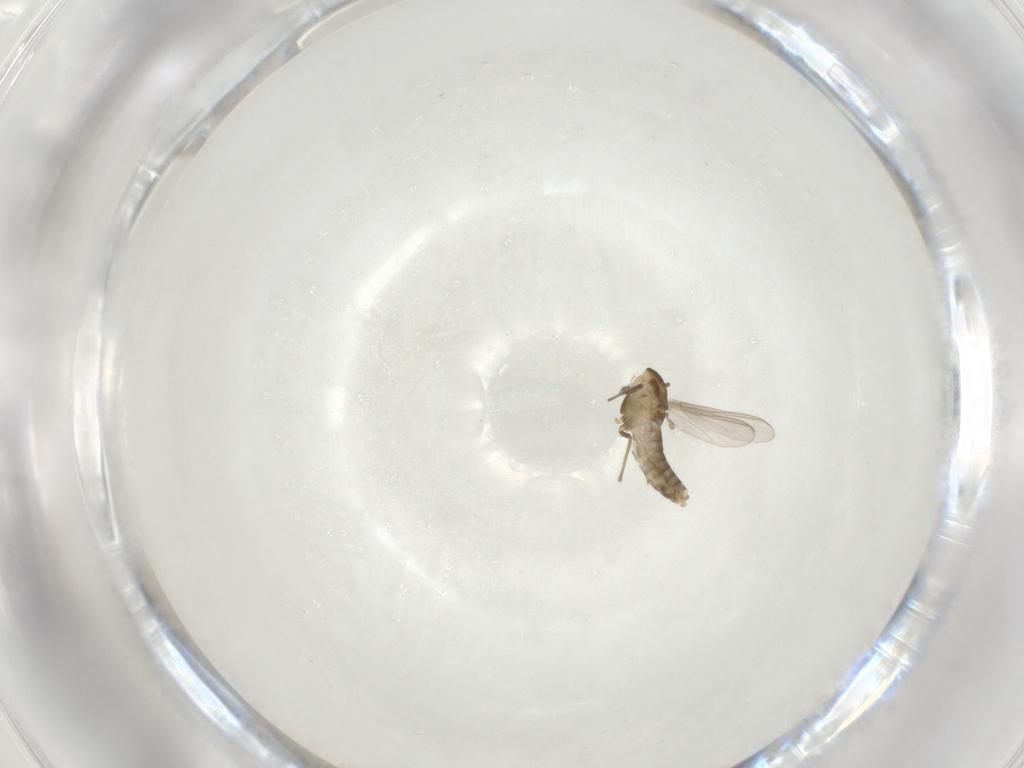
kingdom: Animalia
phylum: Arthropoda
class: Insecta
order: Diptera
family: Chironomidae
